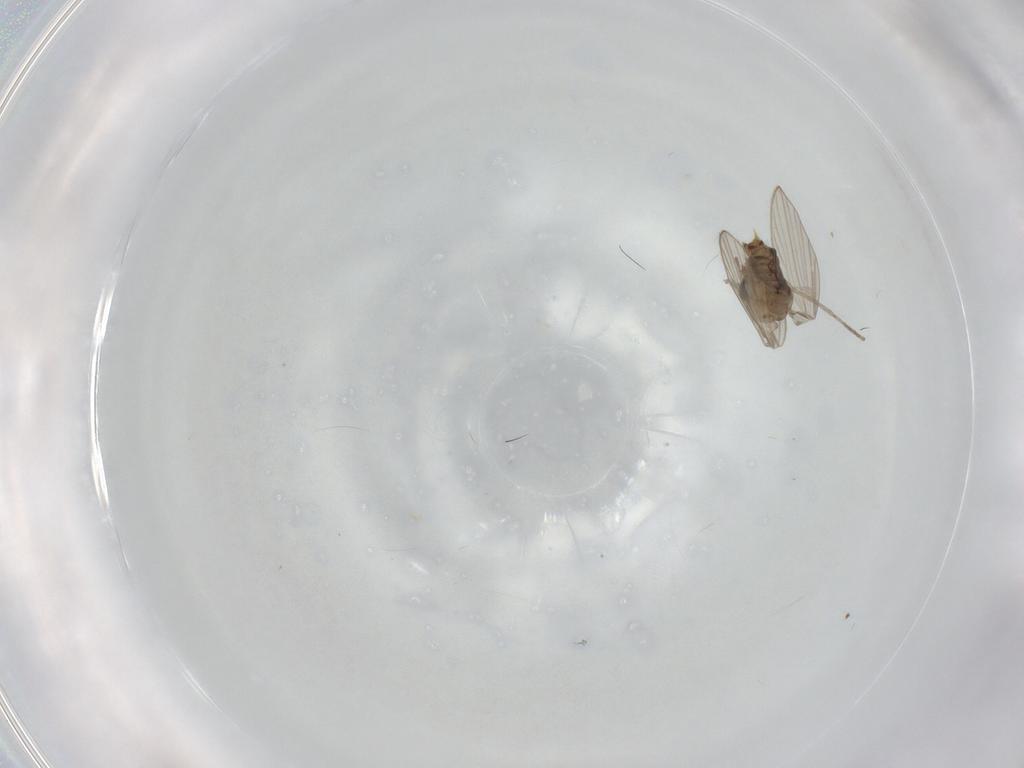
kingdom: Animalia
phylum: Arthropoda
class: Insecta
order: Diptera
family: Psychodidae
